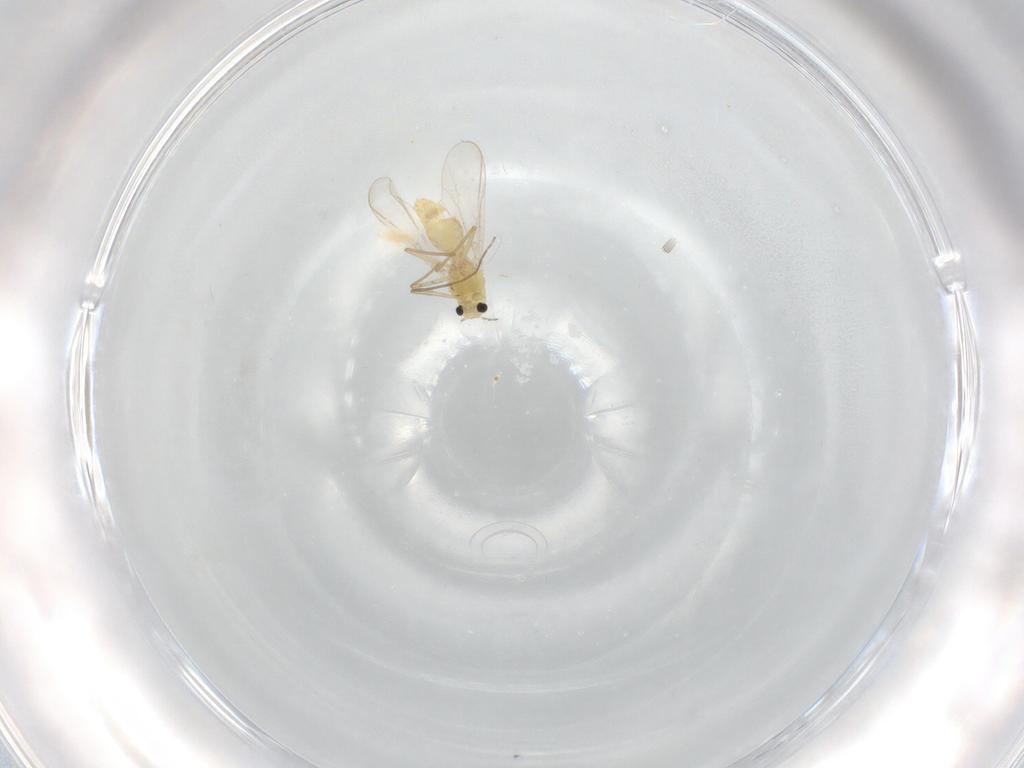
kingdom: Animalia
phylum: Arthropoda
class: Insecta
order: Diptera
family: Chironomidae
